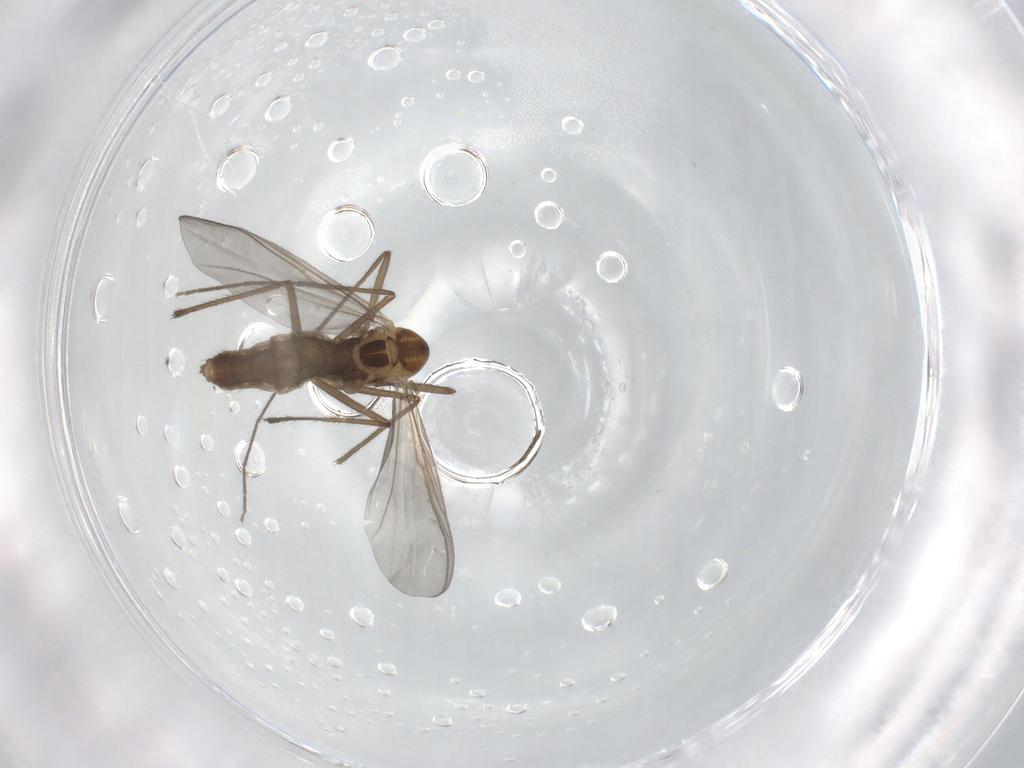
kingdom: Animalia
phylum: Arthropoda
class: Insecta
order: Diptera
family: Chironomidae
